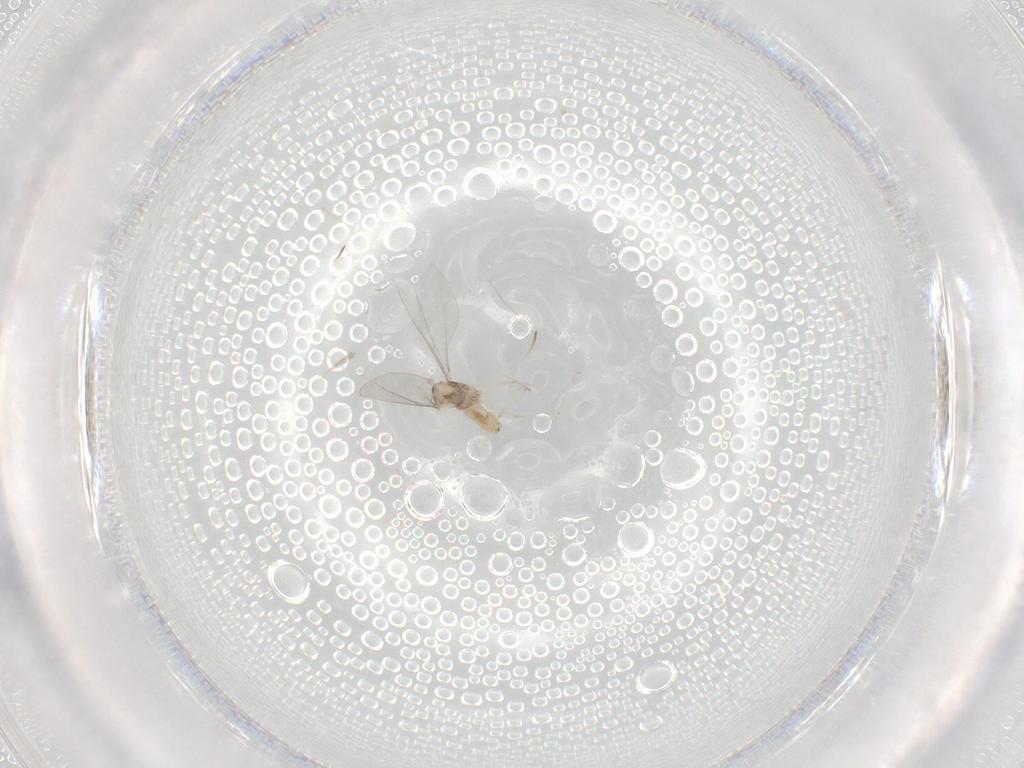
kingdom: Animalia
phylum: Arthropoda
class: Insecta
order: Diptera
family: Cecidomyiidae
